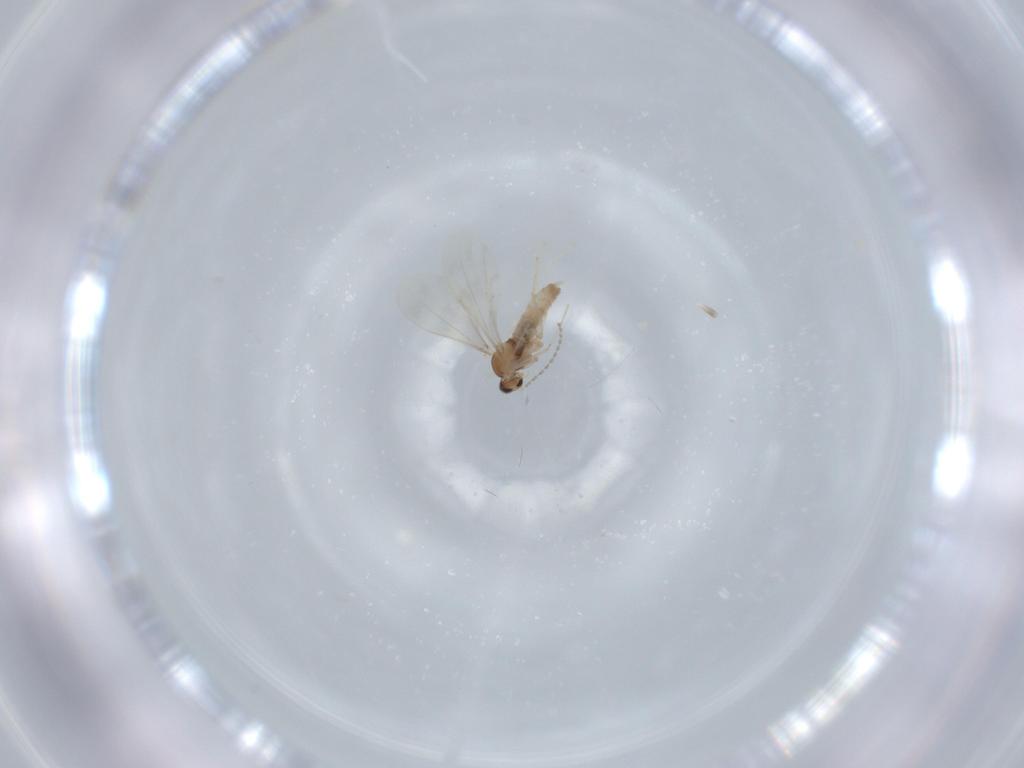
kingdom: Animalia
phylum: Arthropoda
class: Insecta
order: Diptera
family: Cecidomyiidae
